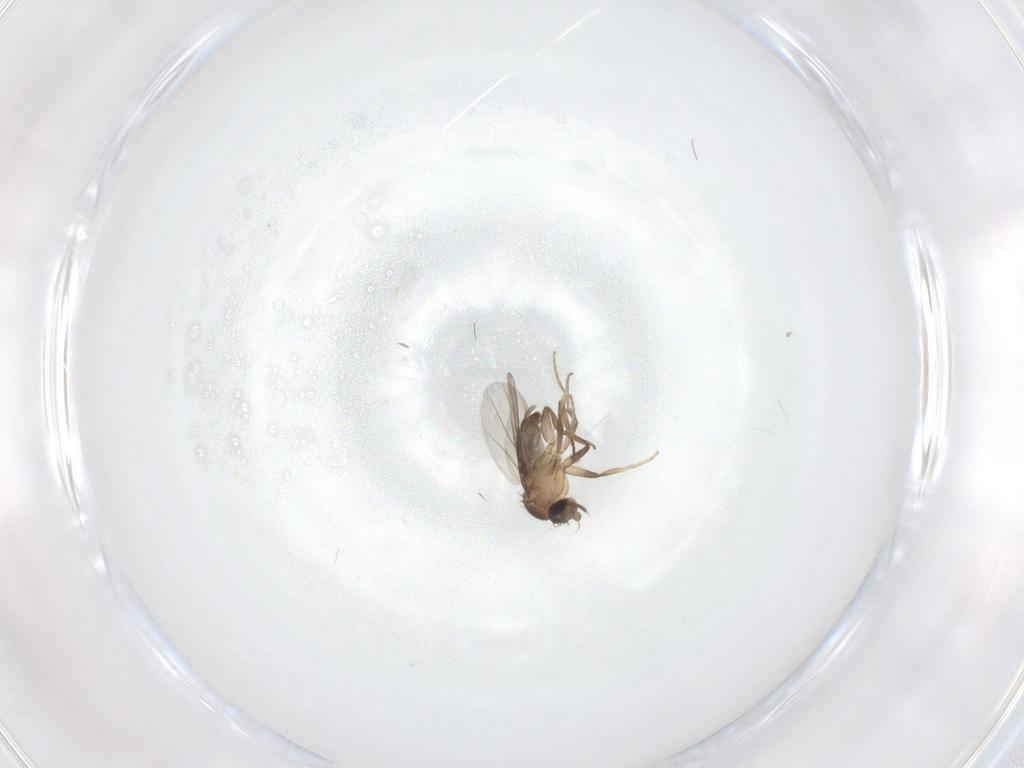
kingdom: Animalia
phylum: Arthropoda
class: Insecta
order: Diptera
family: Phoridae
